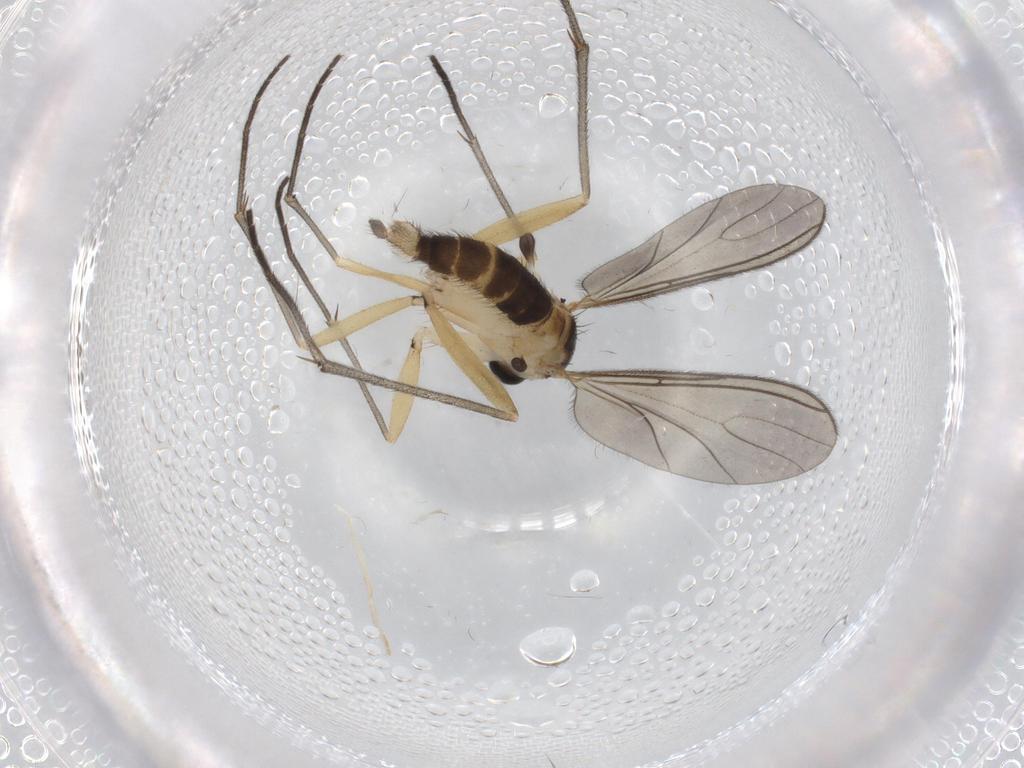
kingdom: Animalia
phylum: Arthropoda
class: Insecta
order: Diptera
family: Sciaridae
